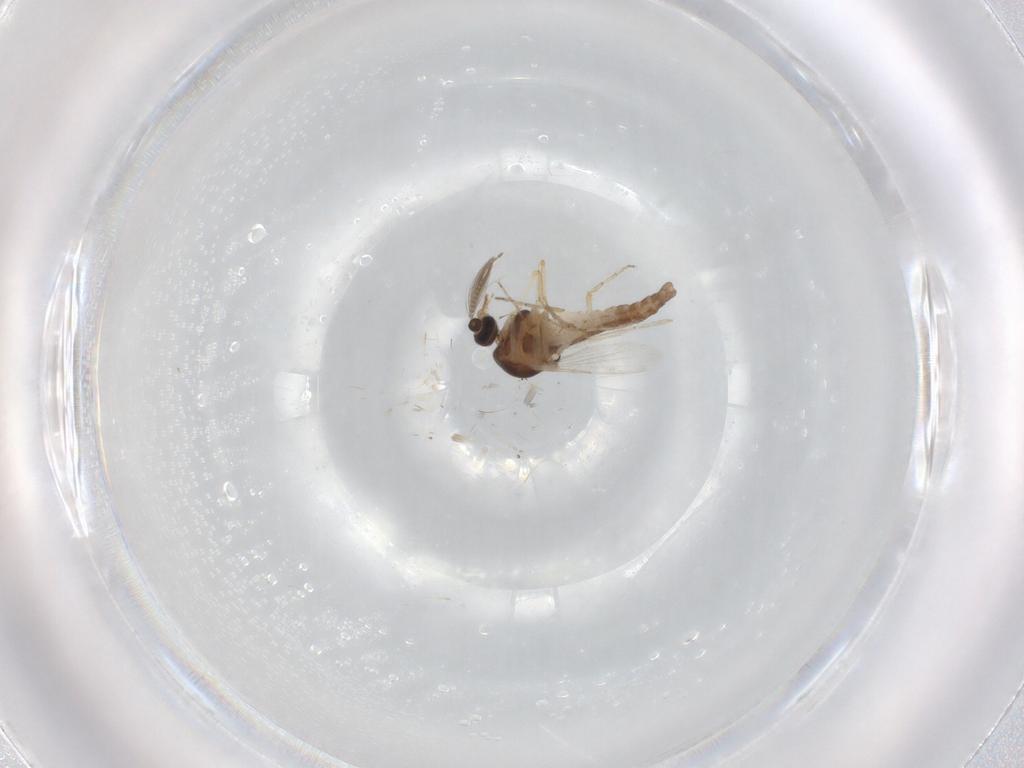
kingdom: Animalia
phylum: Arthropoda
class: Insecta
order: Diptera
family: Ceratopogonidae
